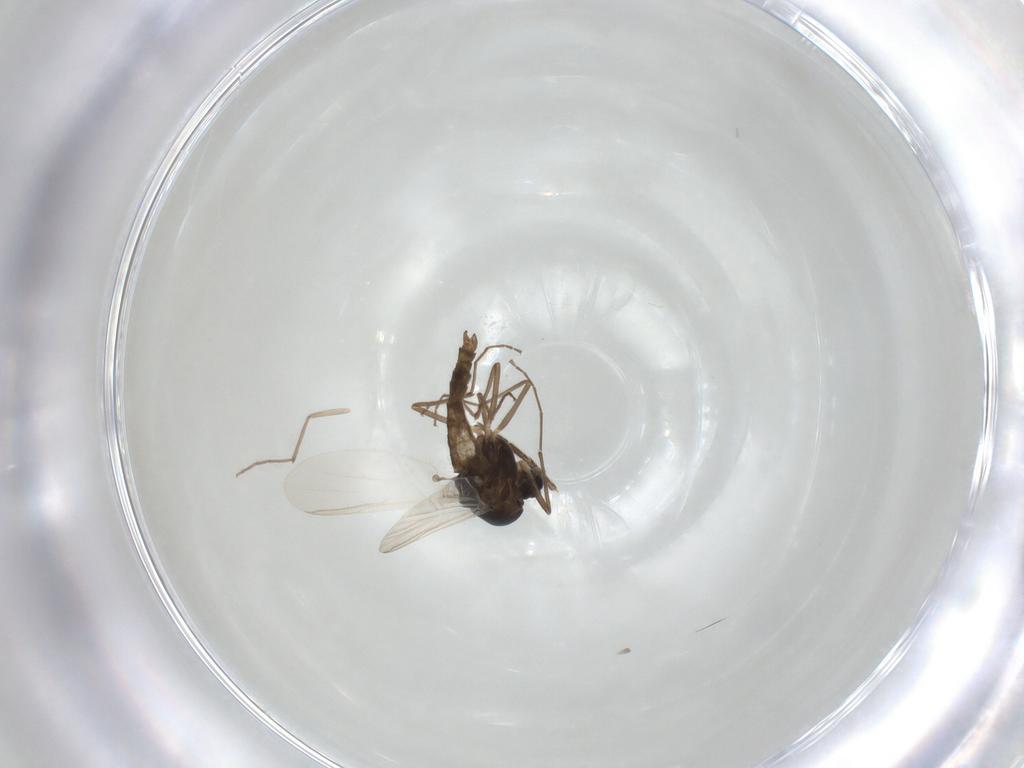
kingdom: Animalia
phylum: Arthropoda
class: Insecta
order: Diptera
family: Chironomidae
